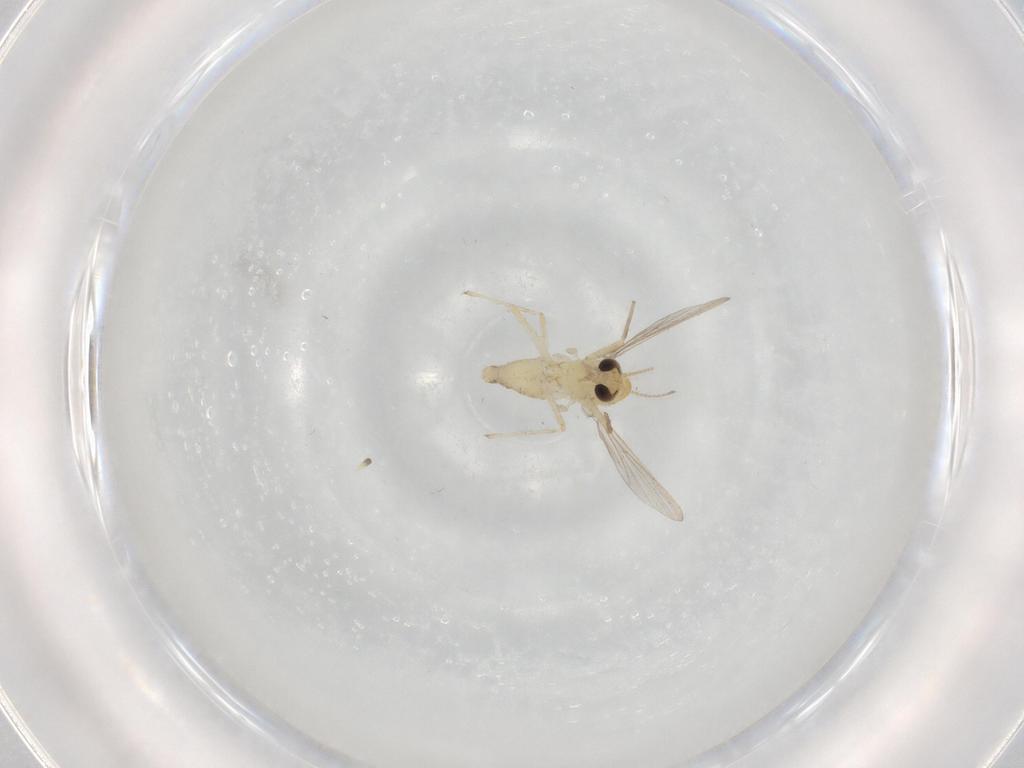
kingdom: Animalia
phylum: Arthropoda
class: Insecta
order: Diptera
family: Chironomidae
